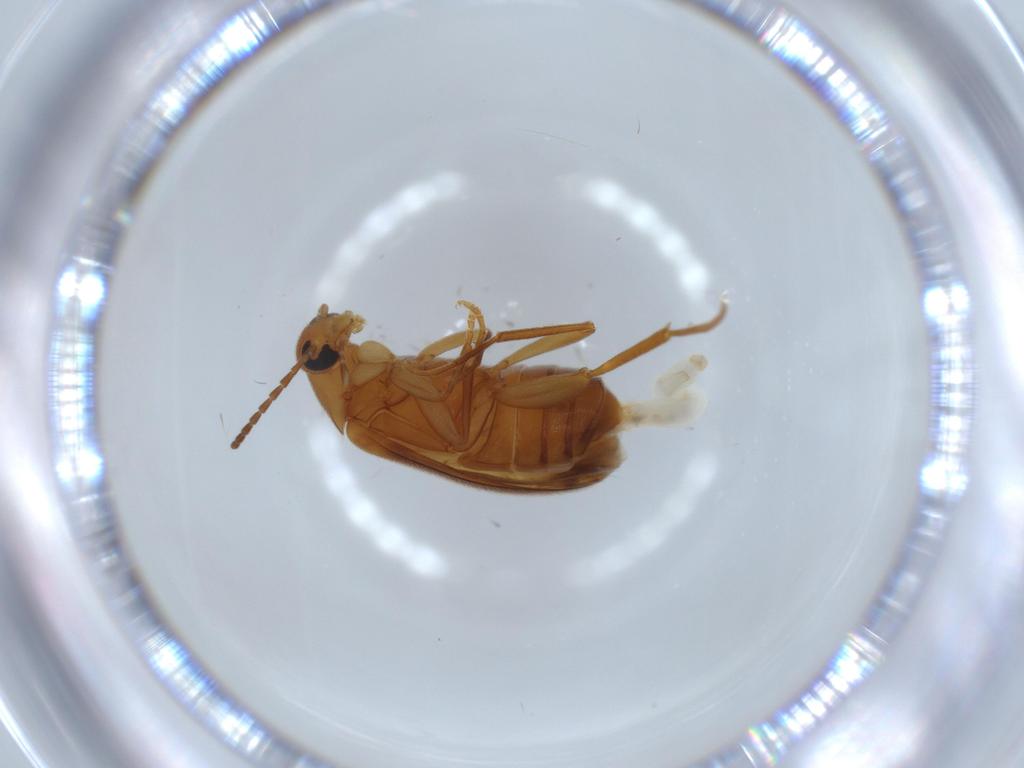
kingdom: Animalia
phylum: Arthropoda
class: Insecta
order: Coleoptera
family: Scraptiidae
